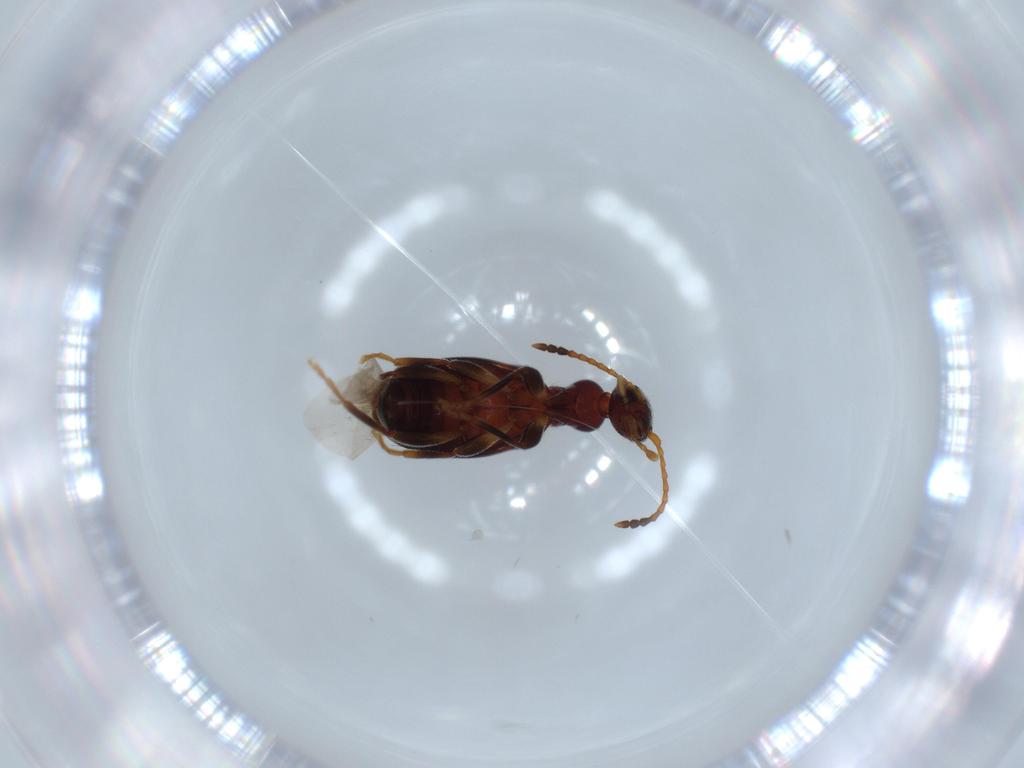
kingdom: Animalia
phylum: Arthropoda
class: Insecta
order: Coleoptera
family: Anthicidae
